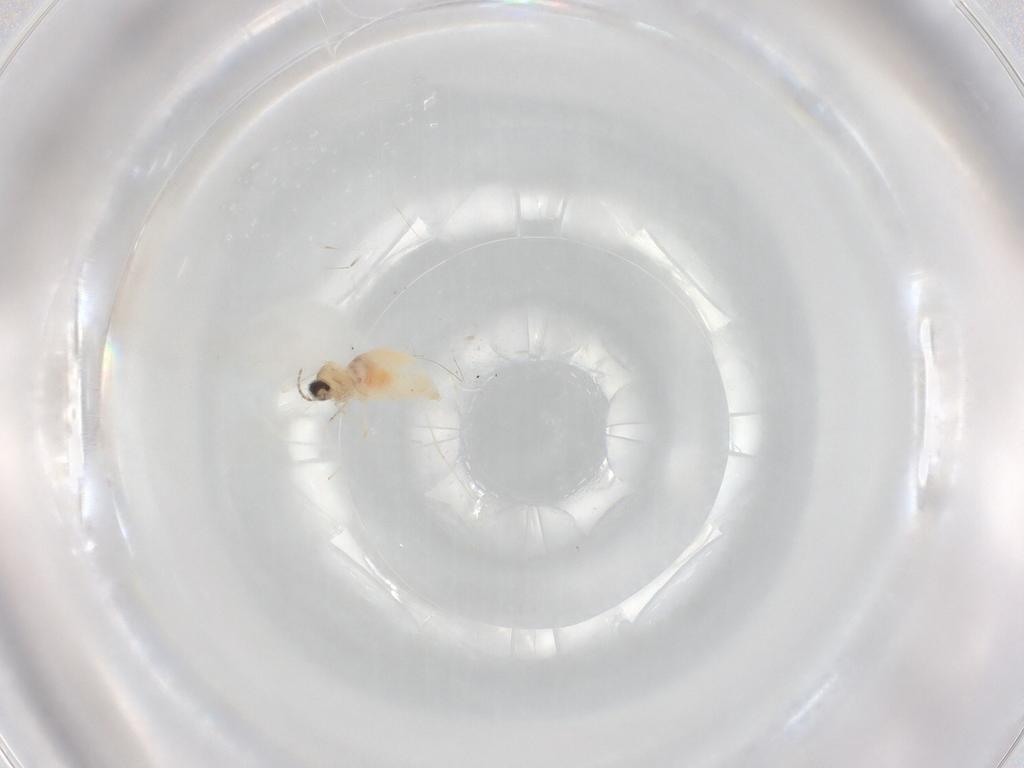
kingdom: Animalia
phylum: Arthropoda
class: Insecta
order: Diptera
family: Cecidomyiidae
